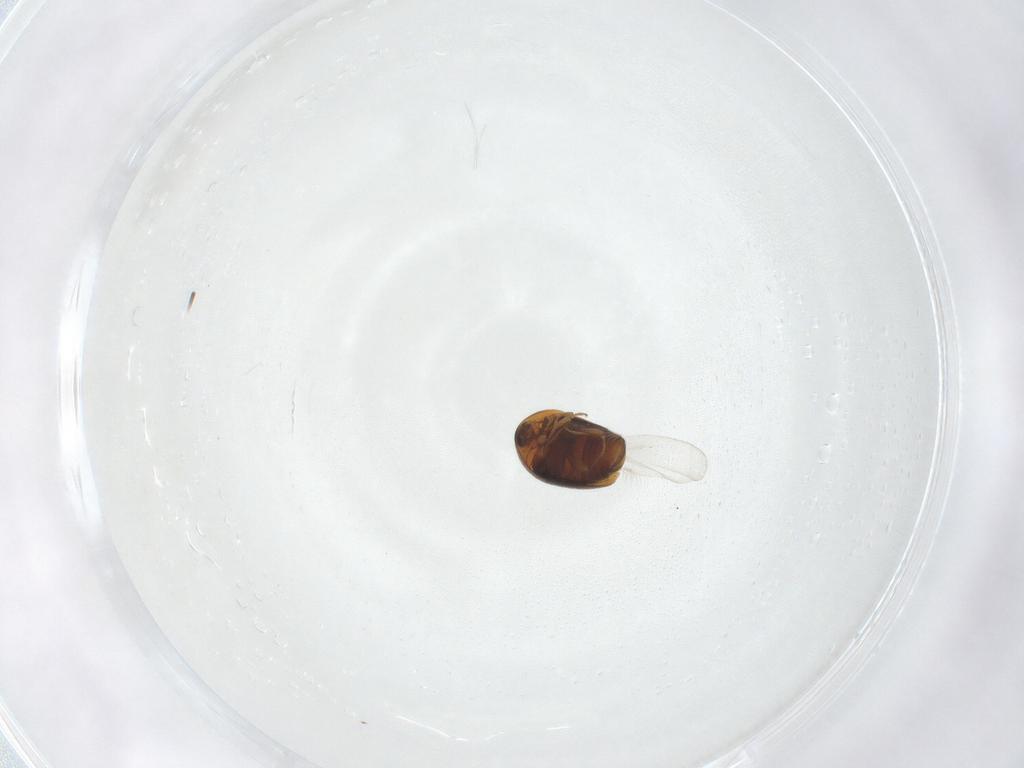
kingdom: Animalia
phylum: Arthropoda
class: Insecta
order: Coleoptera
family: Corylophidae
